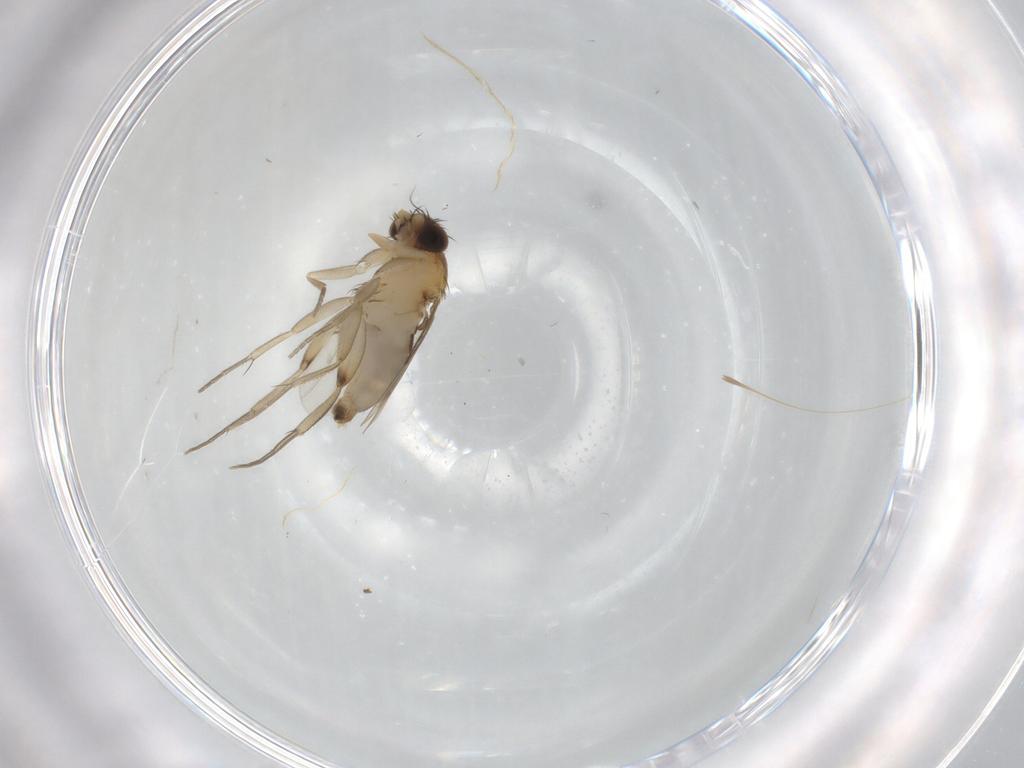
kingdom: Animalia
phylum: Arthropoda
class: Insecta
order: Diptera
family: Phoridae
